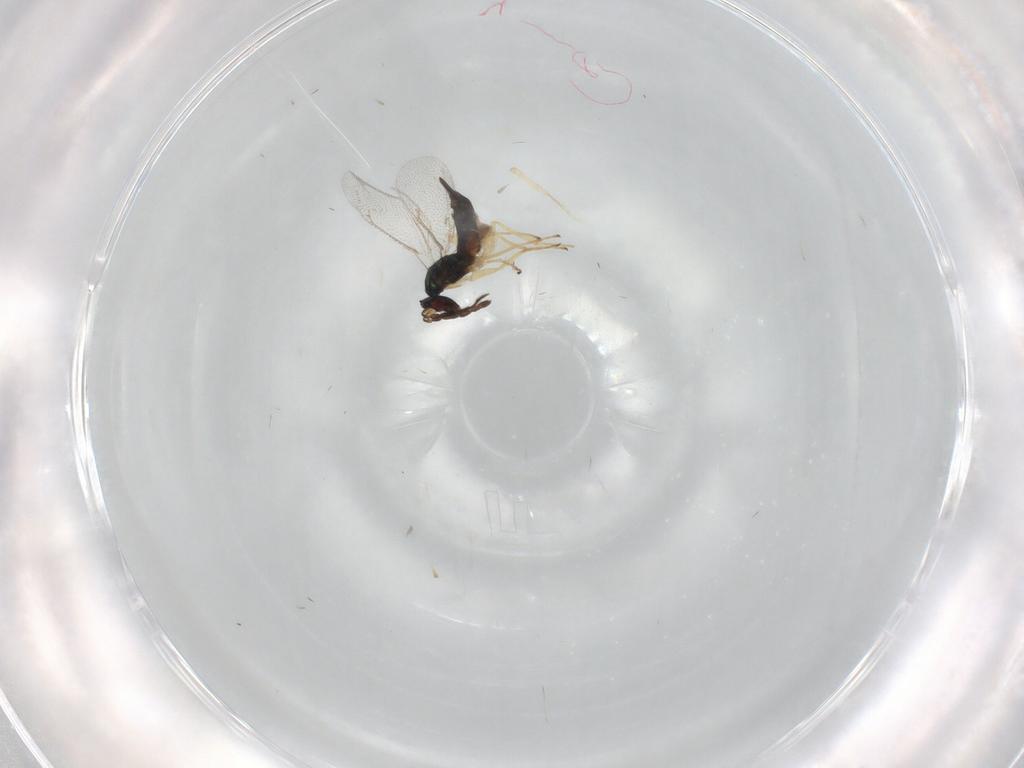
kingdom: Animalia
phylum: Arthropoda
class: Insecta
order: Hymenoptera
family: Eulophidae
